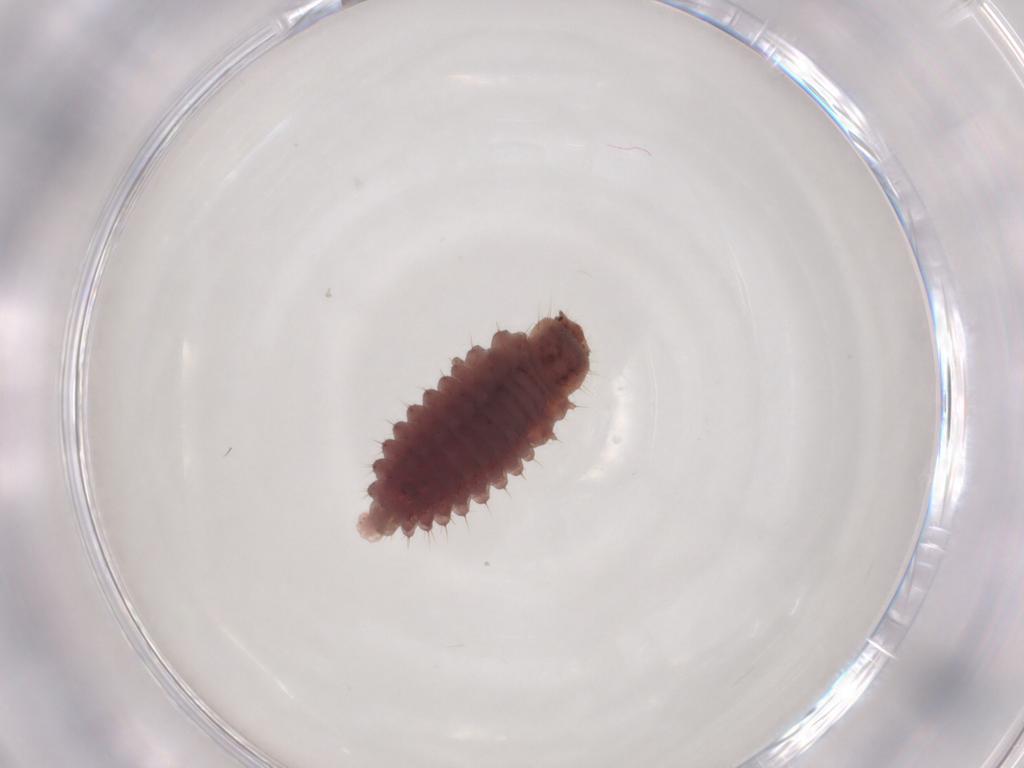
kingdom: Animalia
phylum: Arthropoda
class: Insecta
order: Coleoptera
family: Coccinellidae
